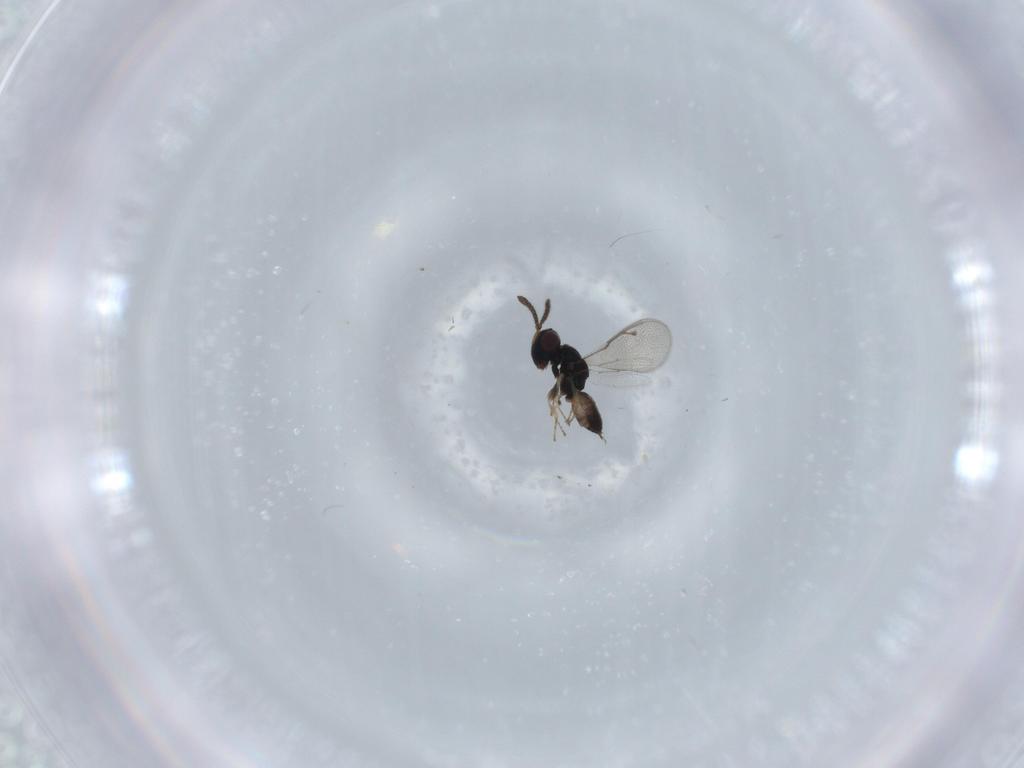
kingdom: Animalia
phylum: Arthropoda
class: Insecta
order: Hymenoptera
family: Pteromalidae
